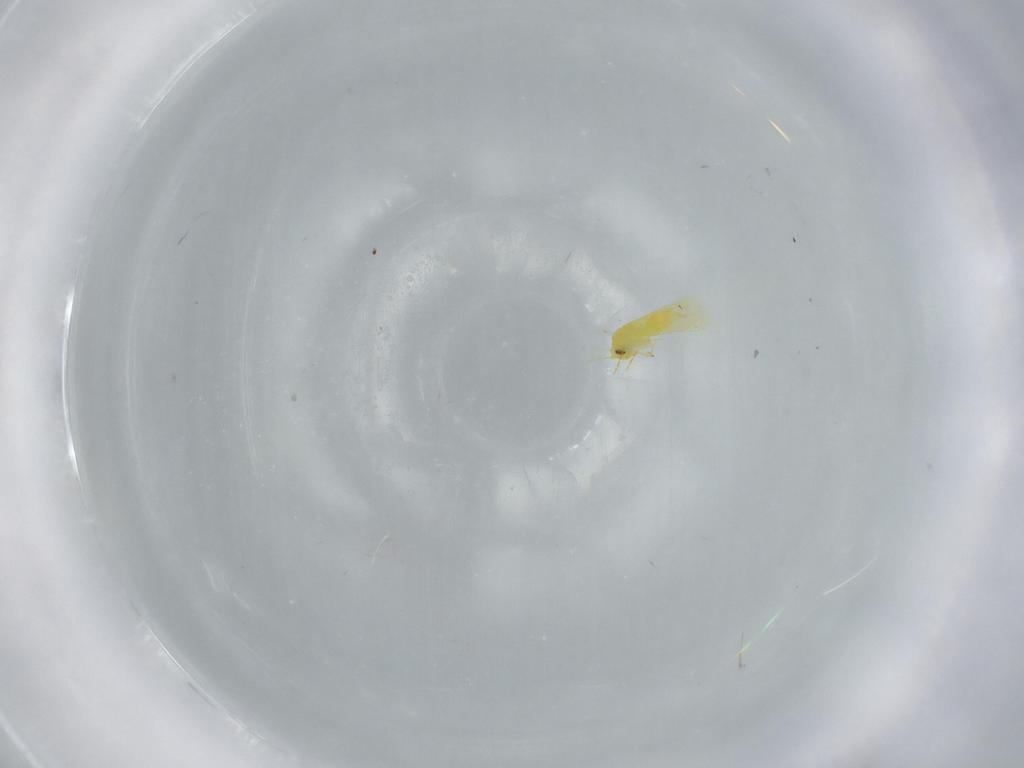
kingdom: Animalia
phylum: Arthropoda
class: Insecta
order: Hemiptera
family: Aleyrodidae
